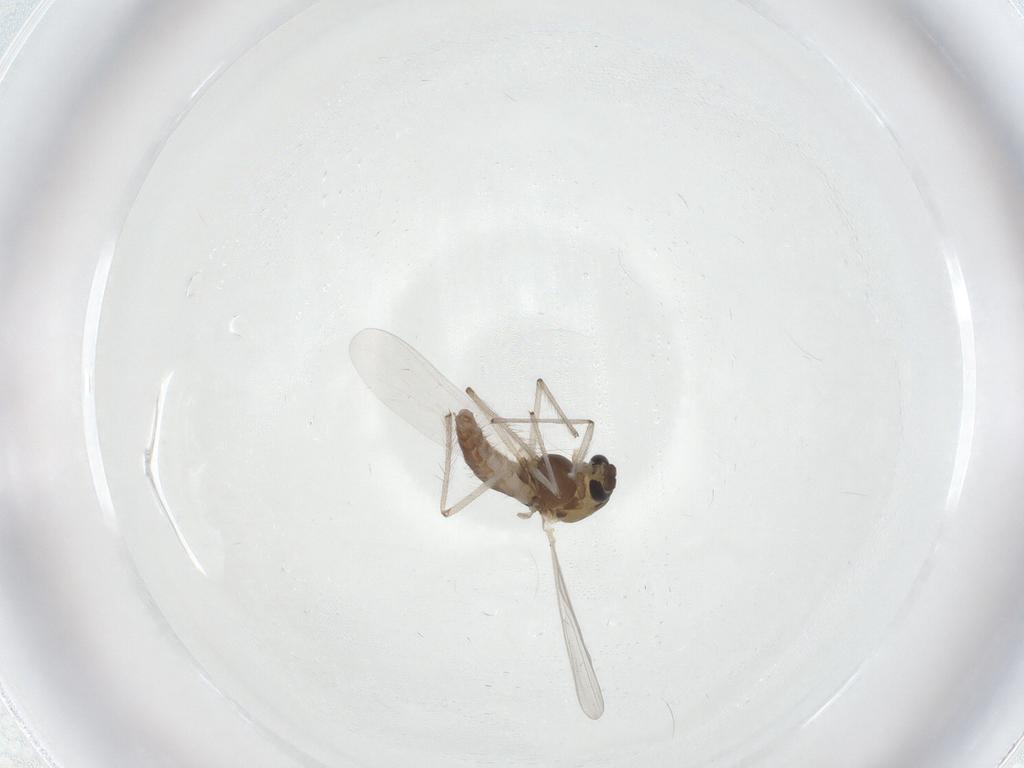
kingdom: Animalia
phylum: Arthropoda
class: Insecta
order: Diptera
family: Chironomidae
